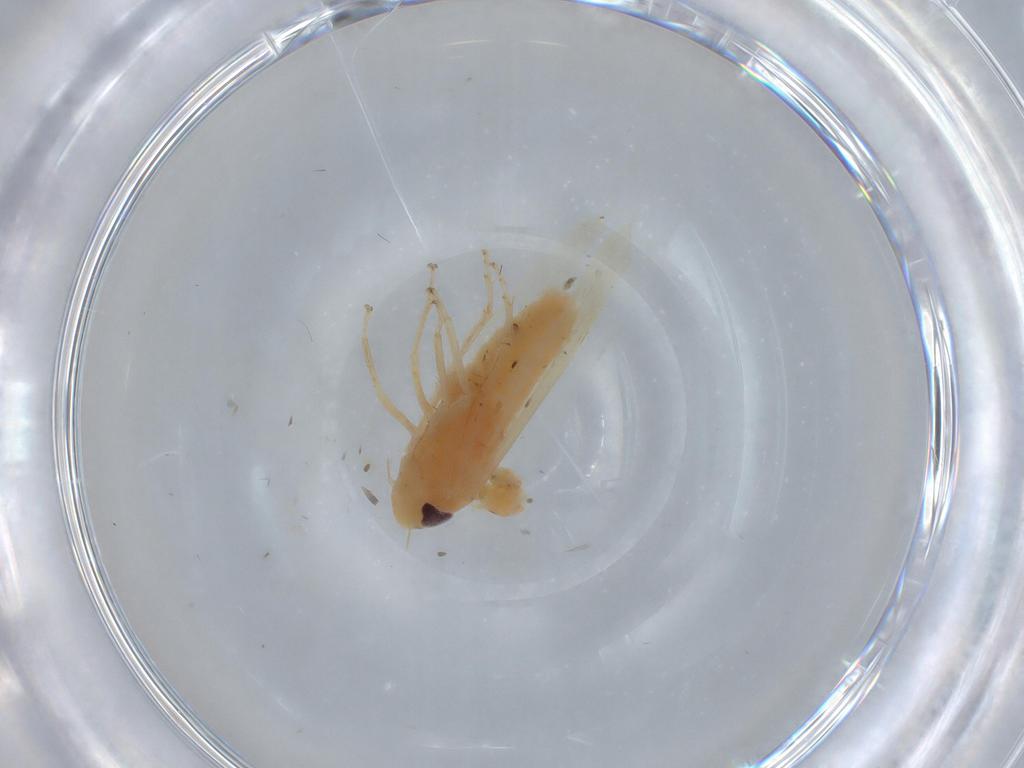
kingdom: Animalia
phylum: Arthropoda
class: Insecta
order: Hemiptera
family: Cicadellidae
